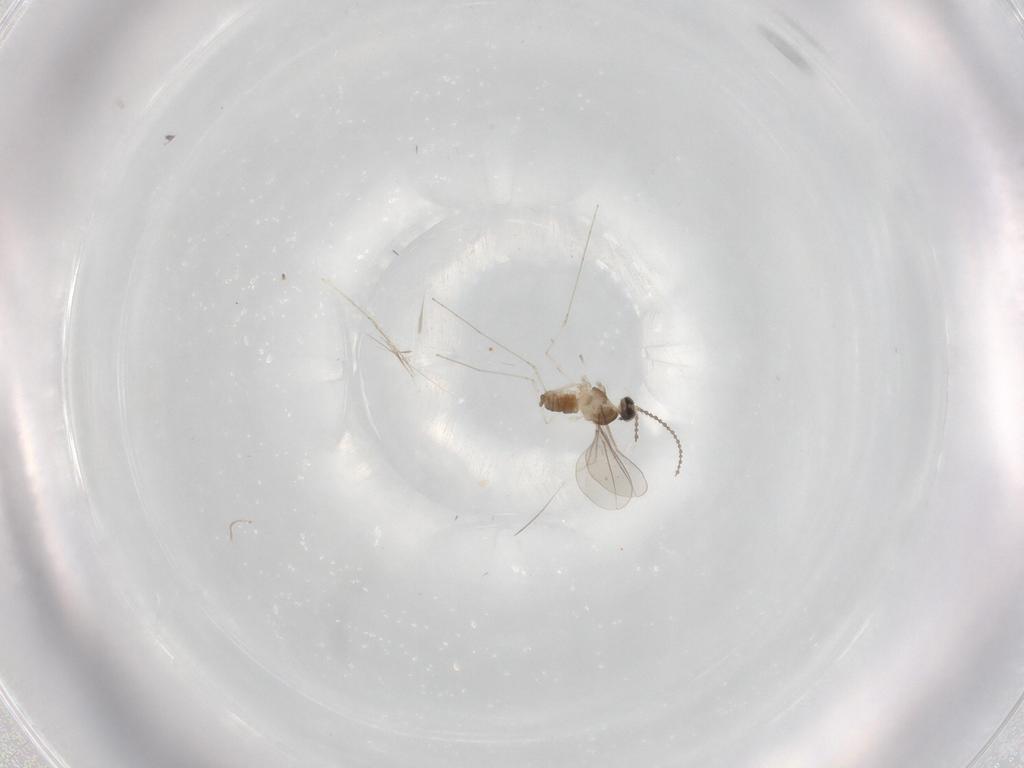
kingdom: Animalia
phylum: Arthropoda
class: Insecta
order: Diptera
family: Cecidomyiidae
